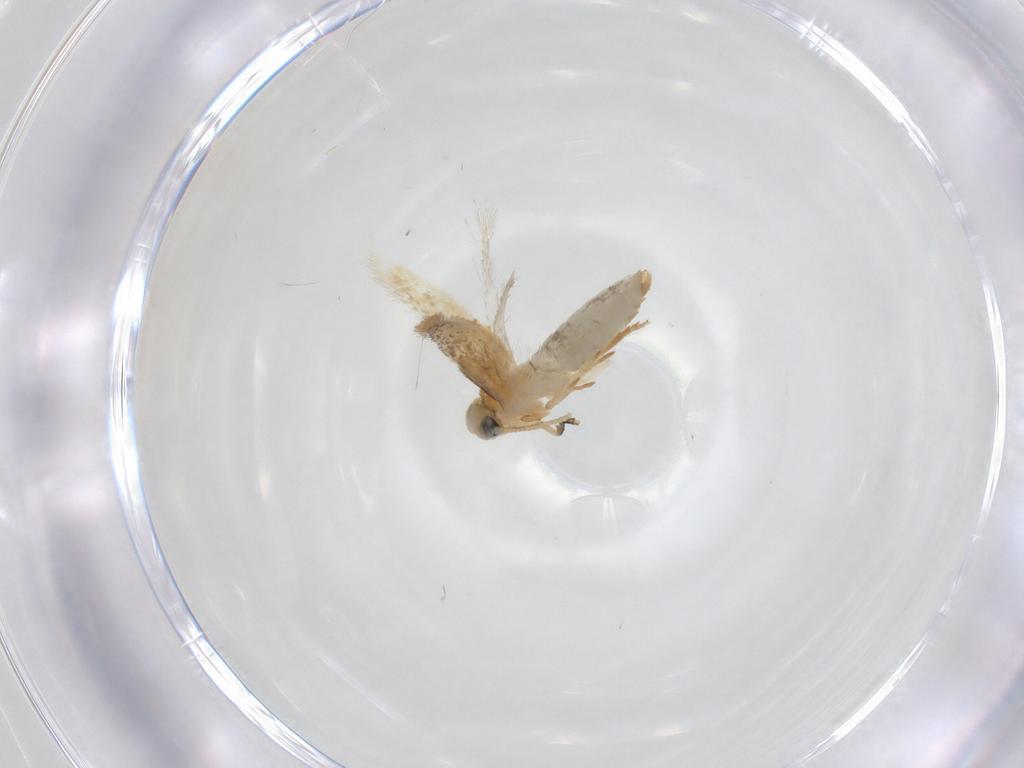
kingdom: Animalia
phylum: Arthropoda
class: Insecta
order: Lepidoptera
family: Nepticulidae
